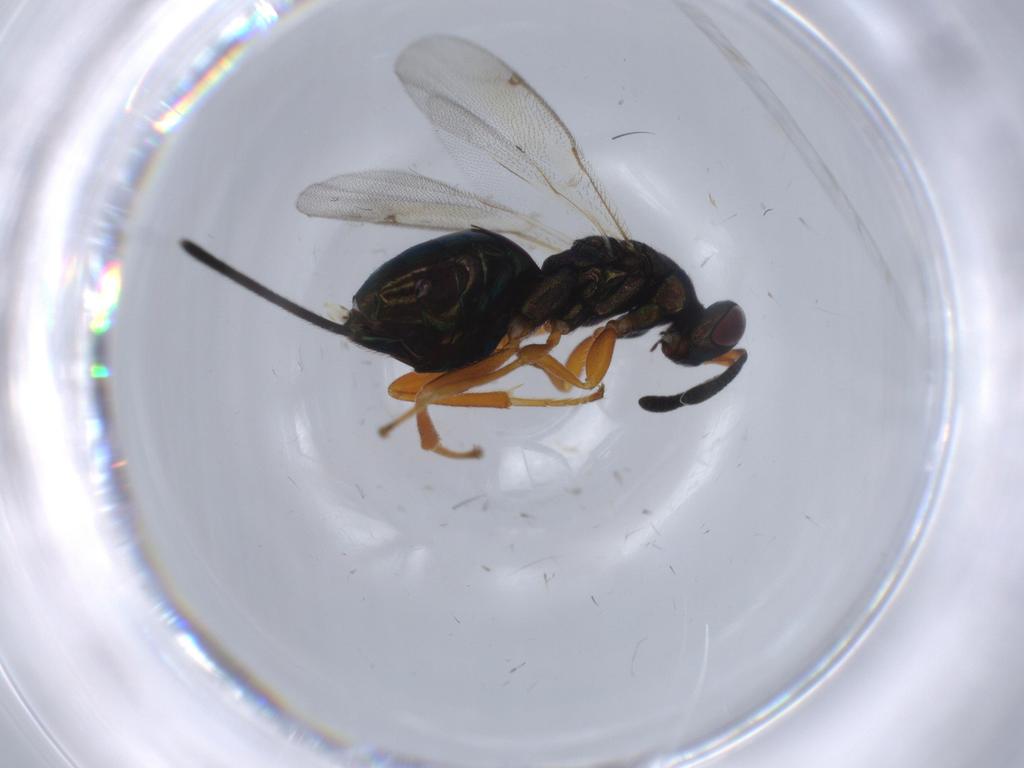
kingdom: Animalia
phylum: Arthropoda
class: Insecta
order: Hymenoptera
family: Torymidae
